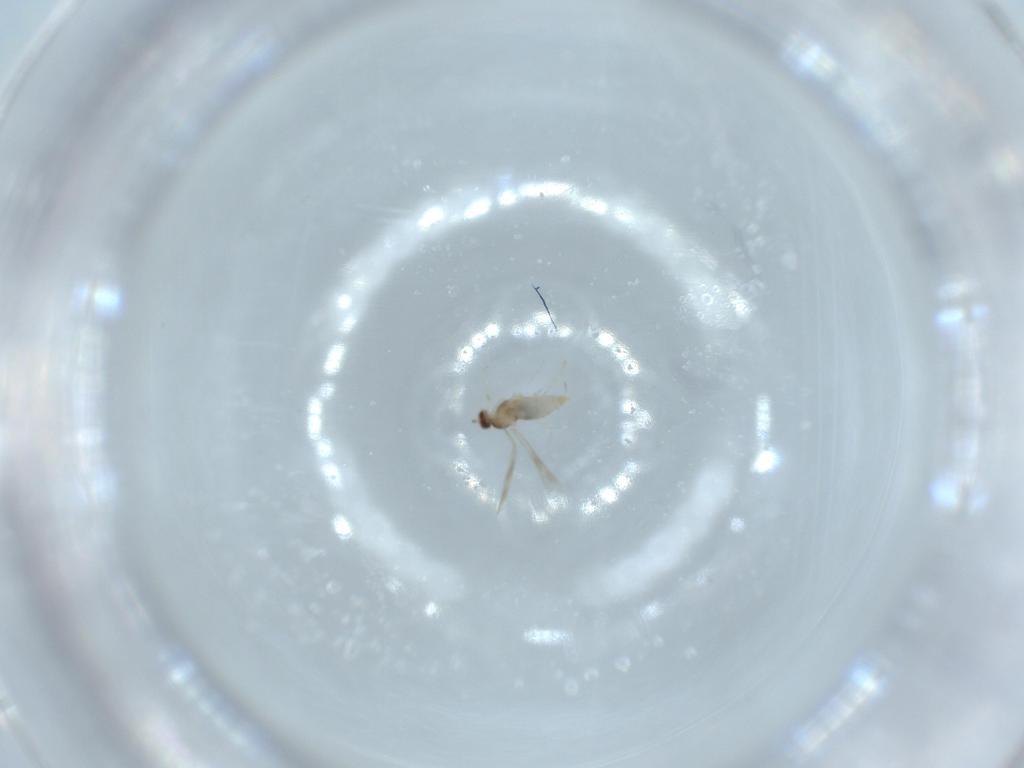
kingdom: Animalia
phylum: Arthropoda
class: Insecta
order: Diptera
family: Cecidomyiidae
